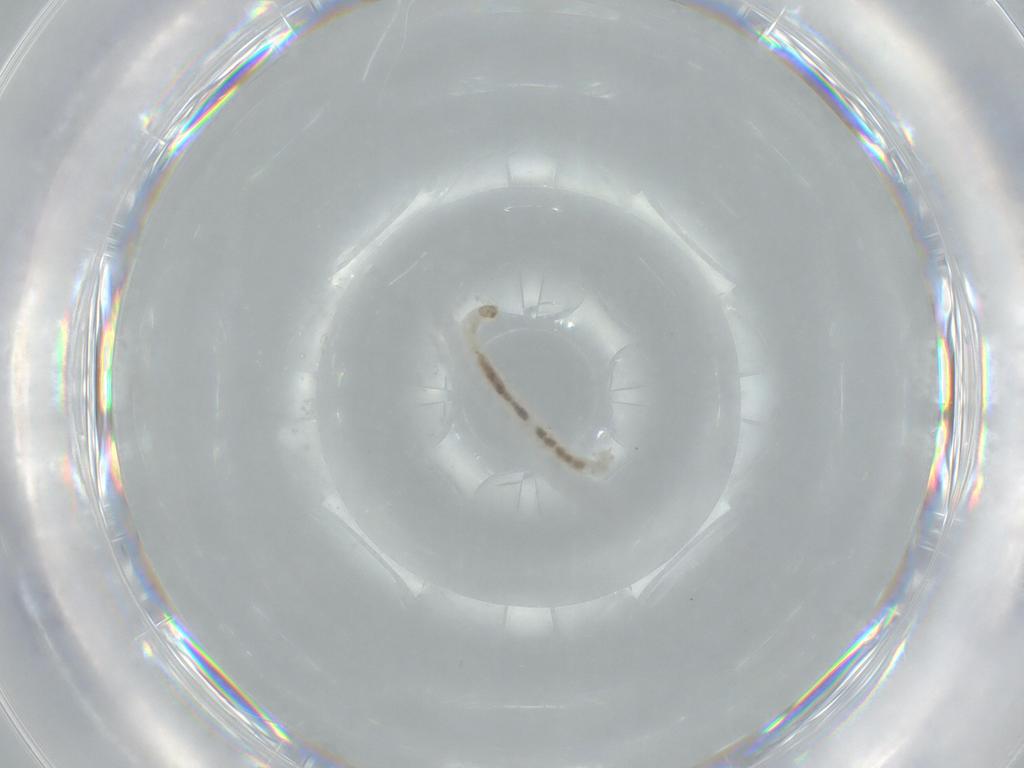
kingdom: Animalia
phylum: Arthropoda
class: Insecta
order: Diptera
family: Chironomidae
